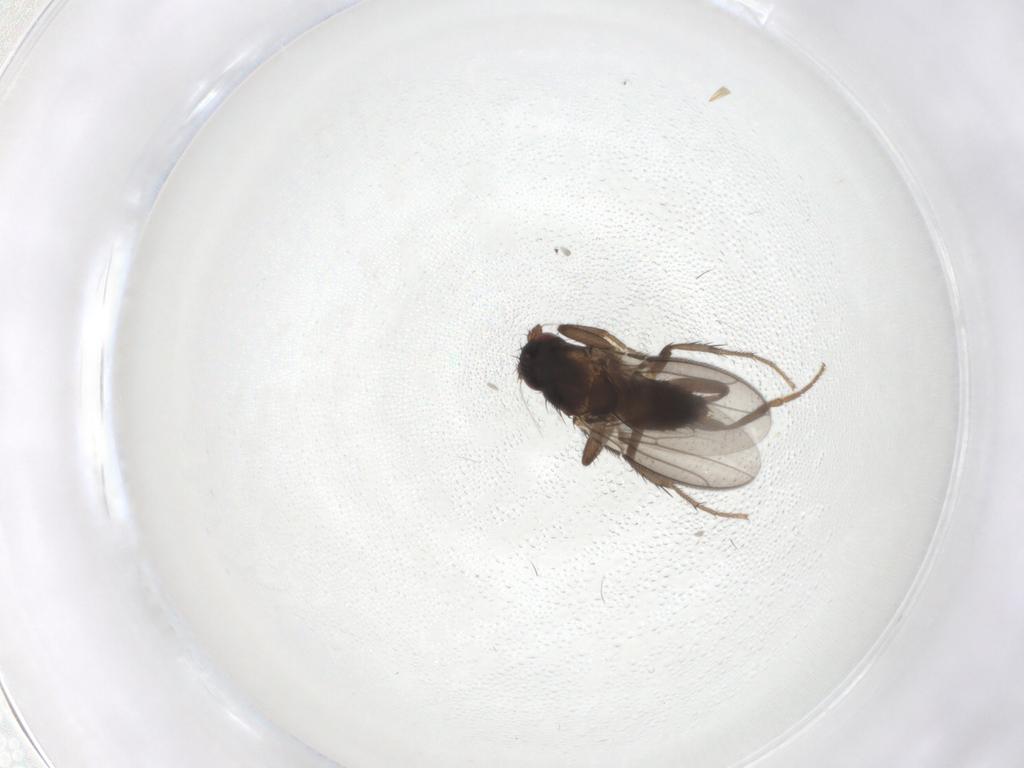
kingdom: Animalia
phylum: Arthropoda
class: Insecta
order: Diptera
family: Sphaeroceridae
